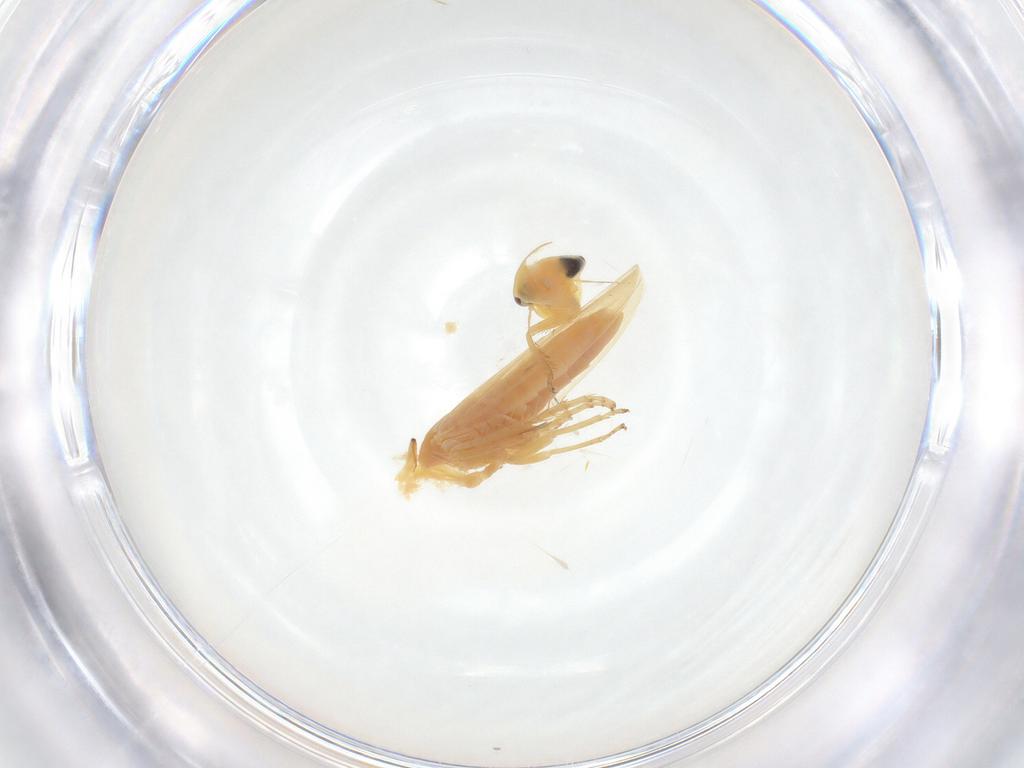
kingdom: Animalia
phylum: Arthropoda
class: Insecta
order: Hemiptera
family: Cicadellidae
